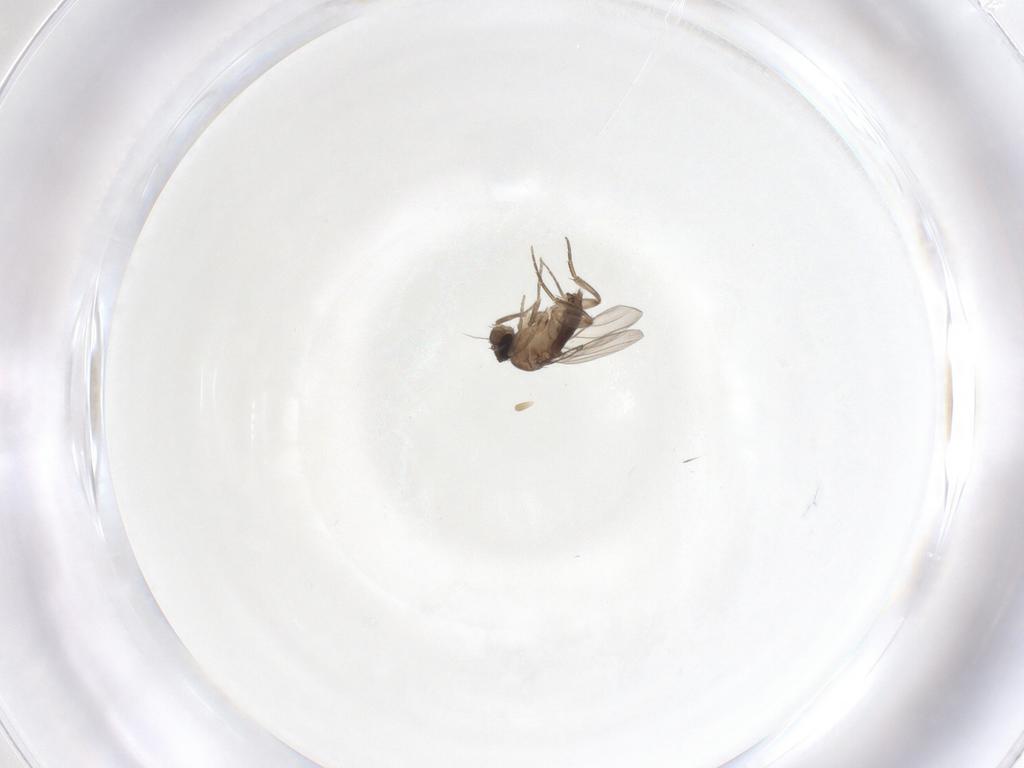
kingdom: Animalia
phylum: Arthropoda
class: Insecta
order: Diptera
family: Phoridae
